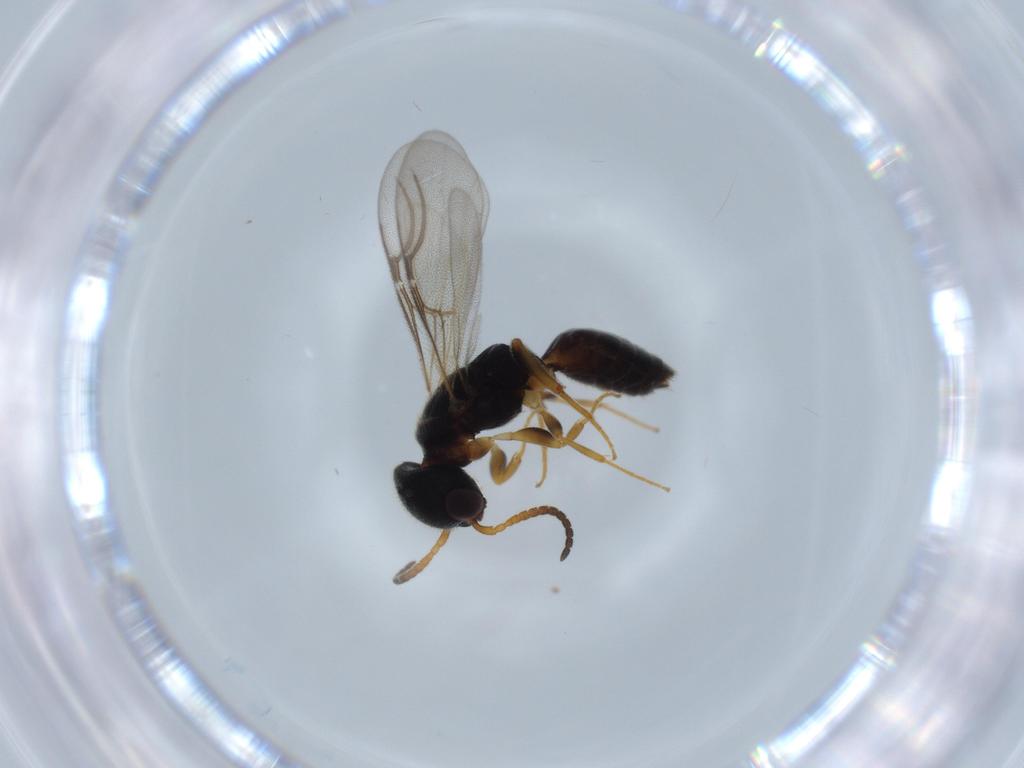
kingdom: Animalia
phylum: Arthropoda
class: Insecta
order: Hymenoptera
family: Bethylidae
